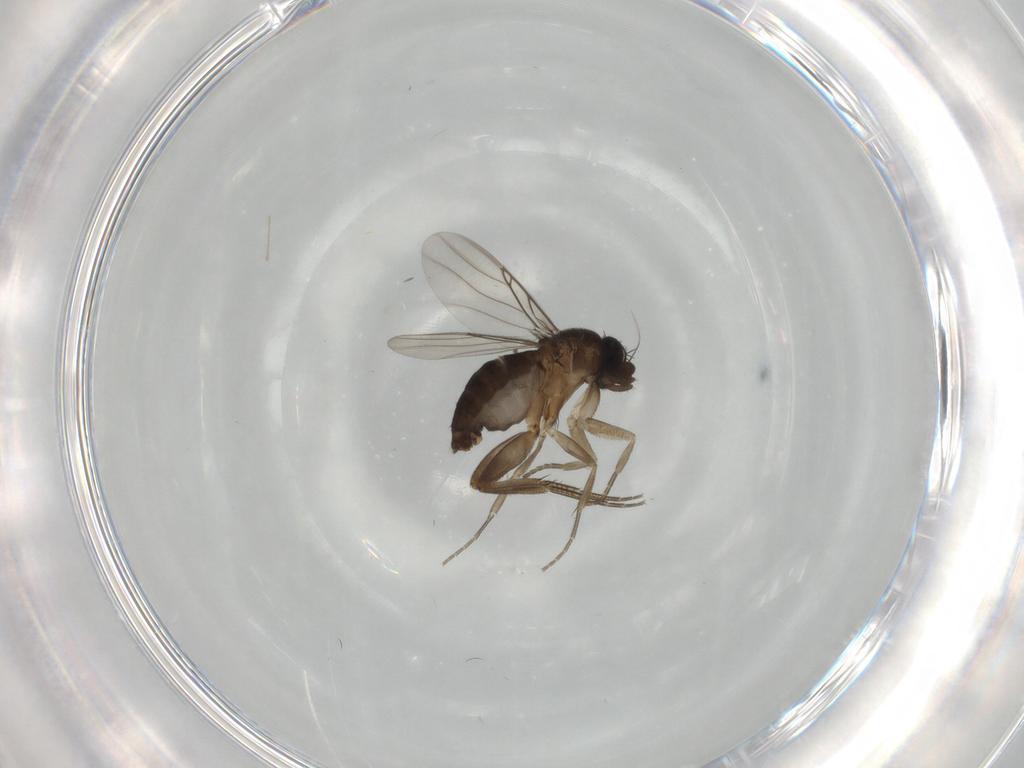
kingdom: Animalia
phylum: Arthropoda
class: Insecta
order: Diptera
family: Phoridae
